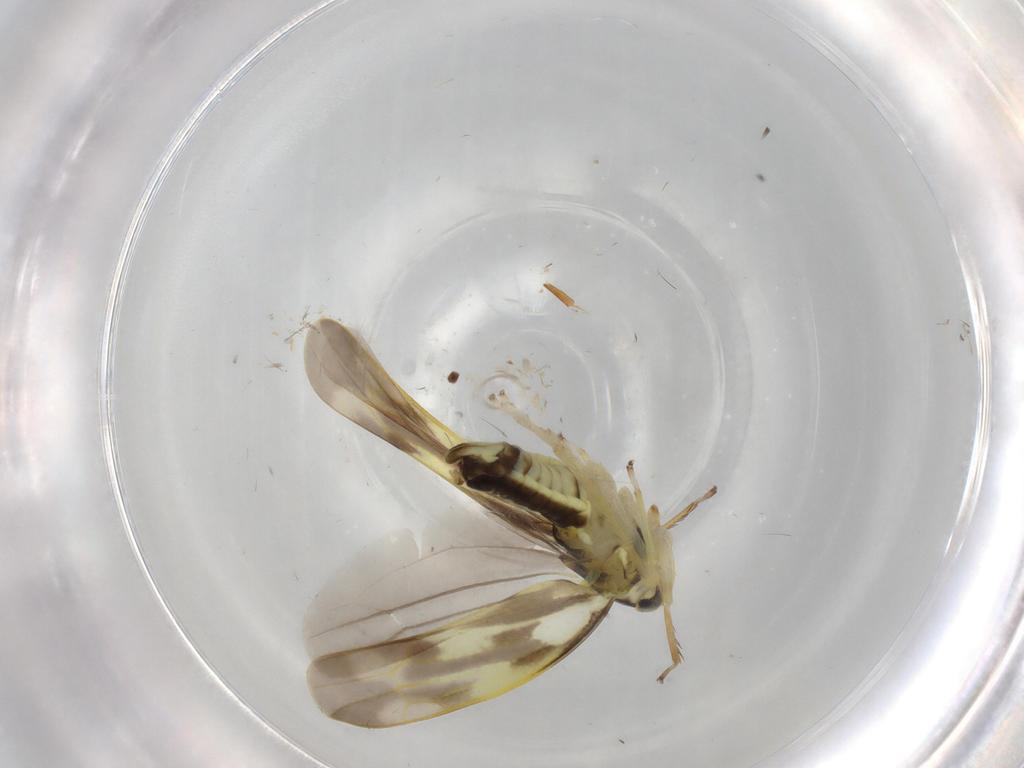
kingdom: Animalia
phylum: Arthropoda
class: Insecta
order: Hemiptera
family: Cicadellidae
